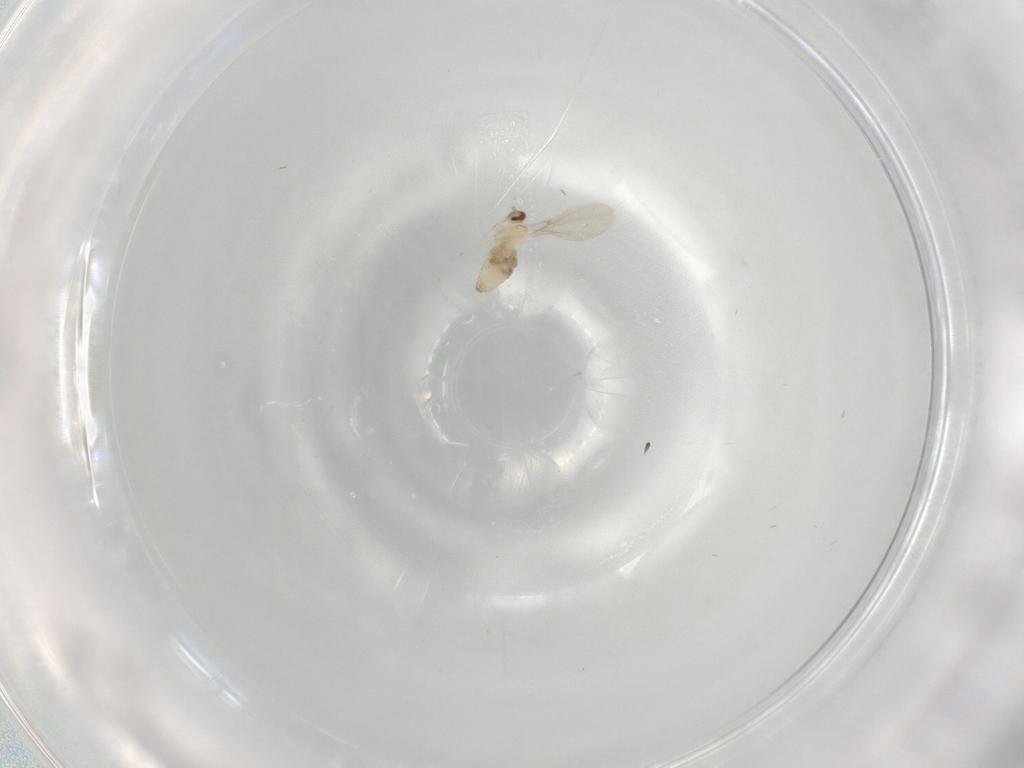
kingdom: Animalia
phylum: Arthropoda
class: Insecta
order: Diptera
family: Cecidomyiidae
